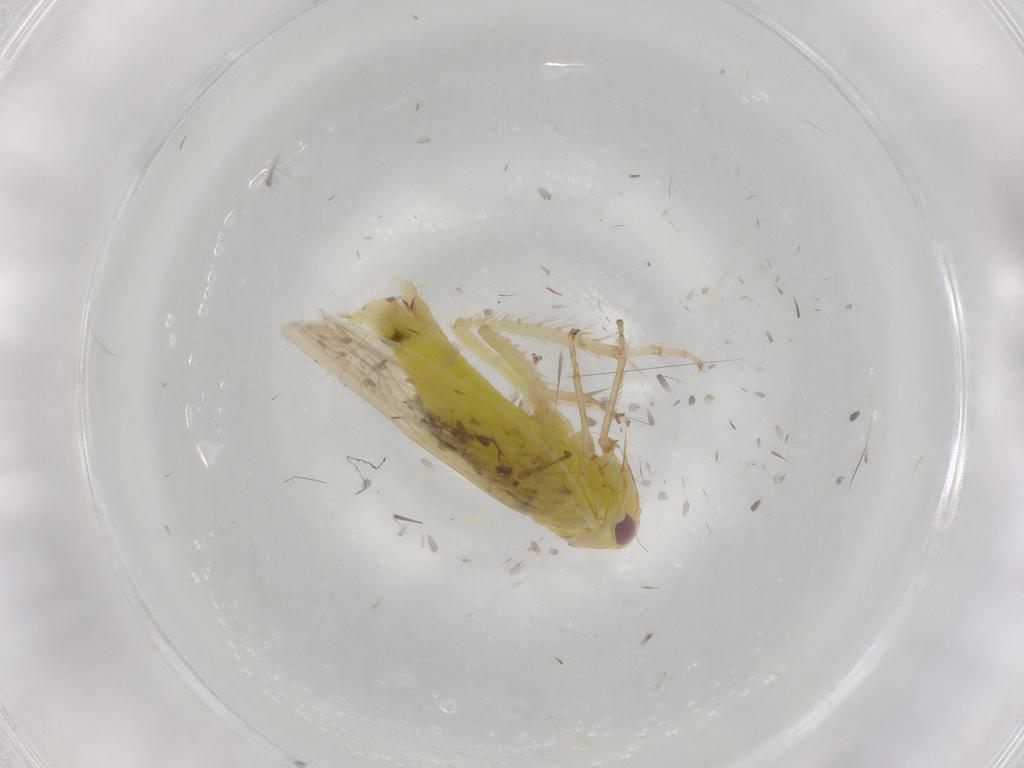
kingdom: Animalia
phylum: Arthropoda
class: Insecta
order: Hemiptera
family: Cicadellidae
